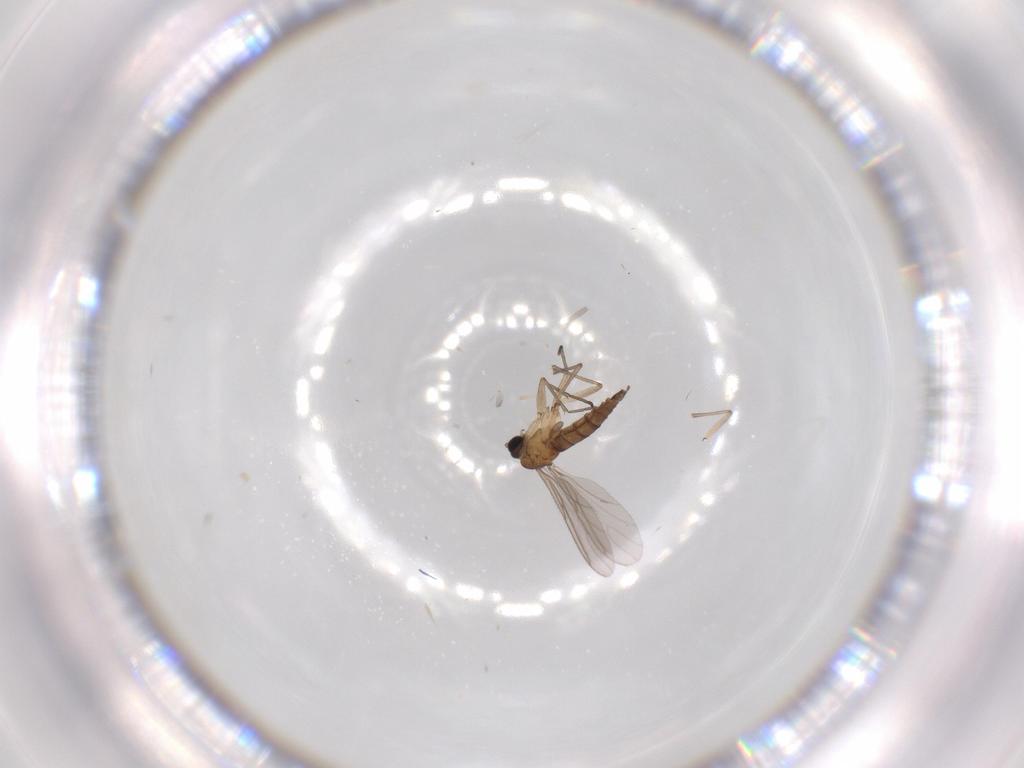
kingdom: Animalia
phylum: Arthropoda
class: Insecta
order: Diptera
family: Sciaridae
